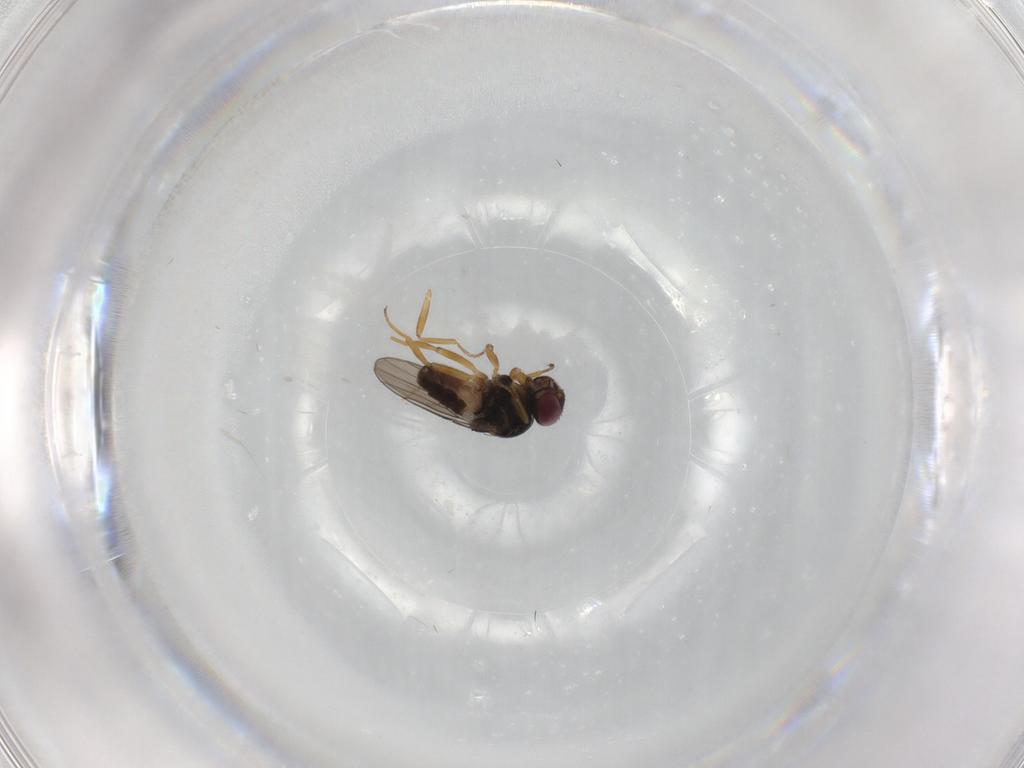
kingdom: Animalia
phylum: Arthropoda
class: Insecta
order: Diptera
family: Chloropidae
